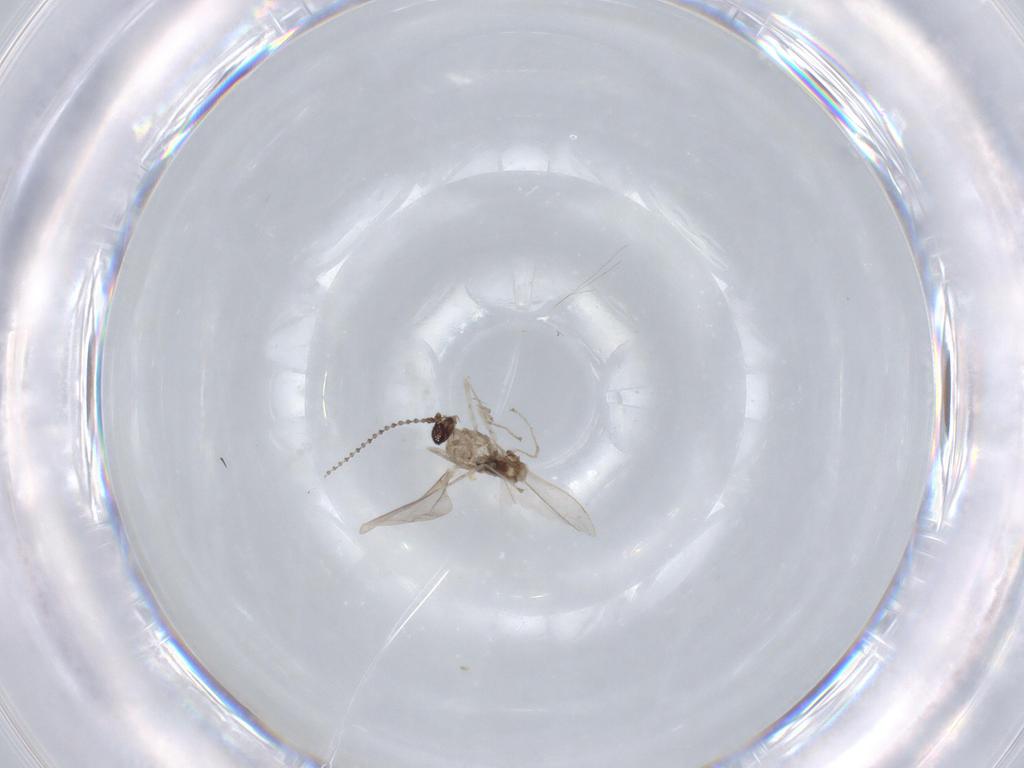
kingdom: Animalia
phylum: Arthropoda
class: Insecta
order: Diptera
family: Cecidomyiidae
